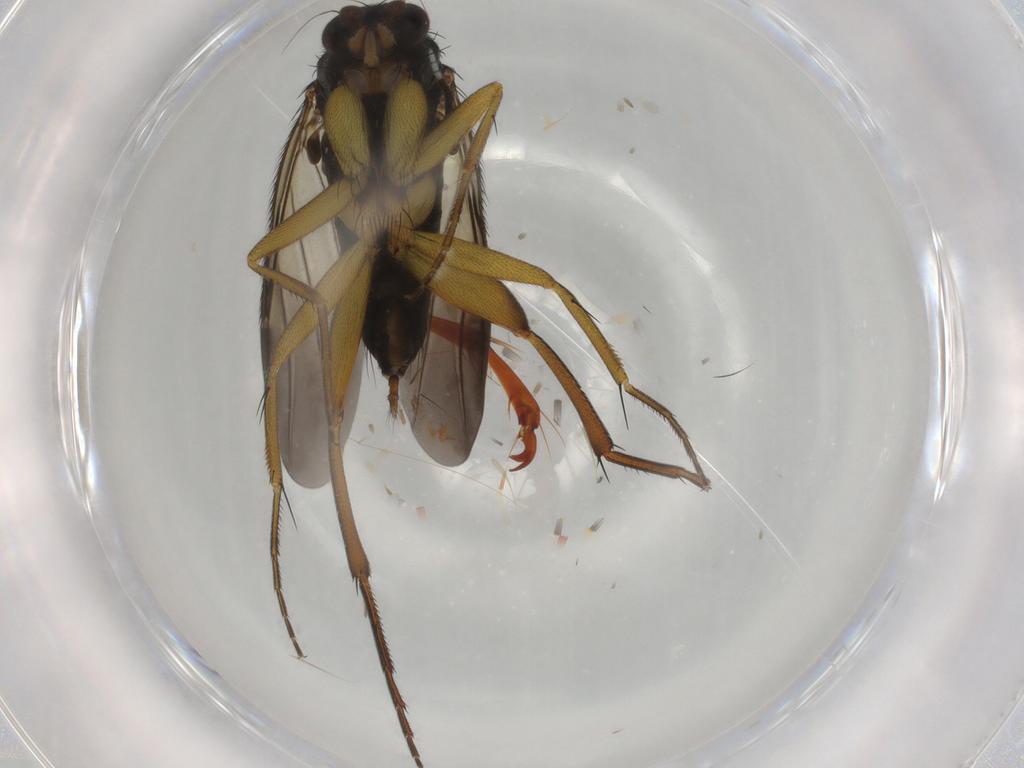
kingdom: Animalia
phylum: Arthropoda
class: Insecta
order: Diptera
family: Phoridae
